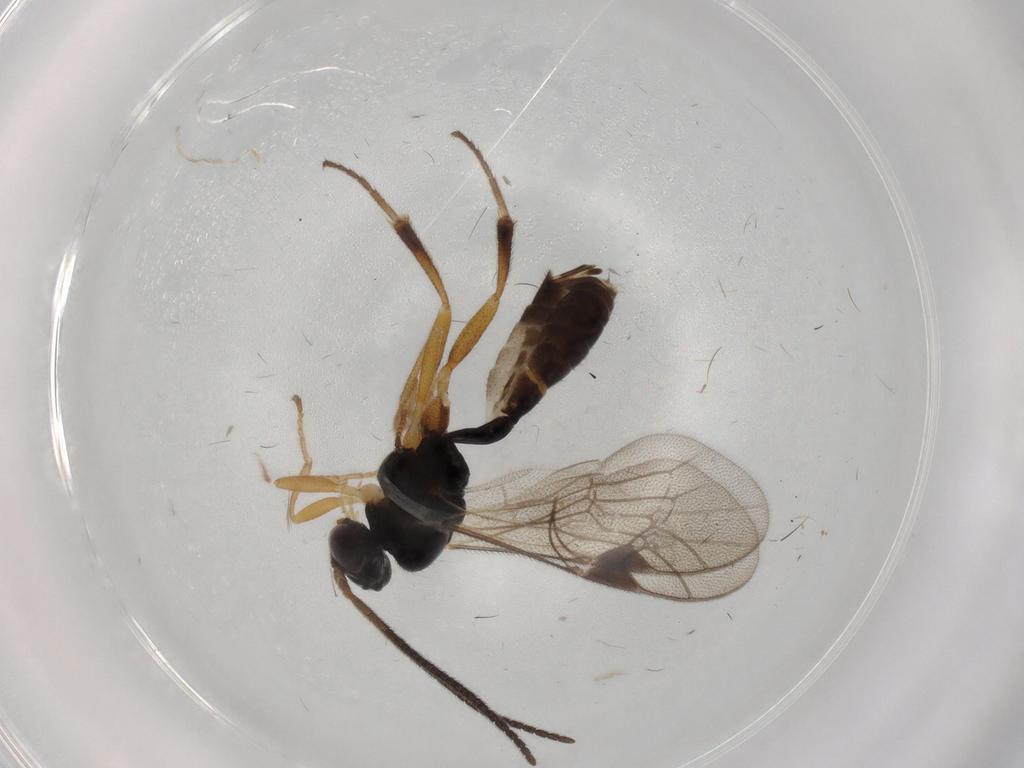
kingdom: Animalia
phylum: Arthropoda
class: Insecta
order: Hymenoptera
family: Formicidae
